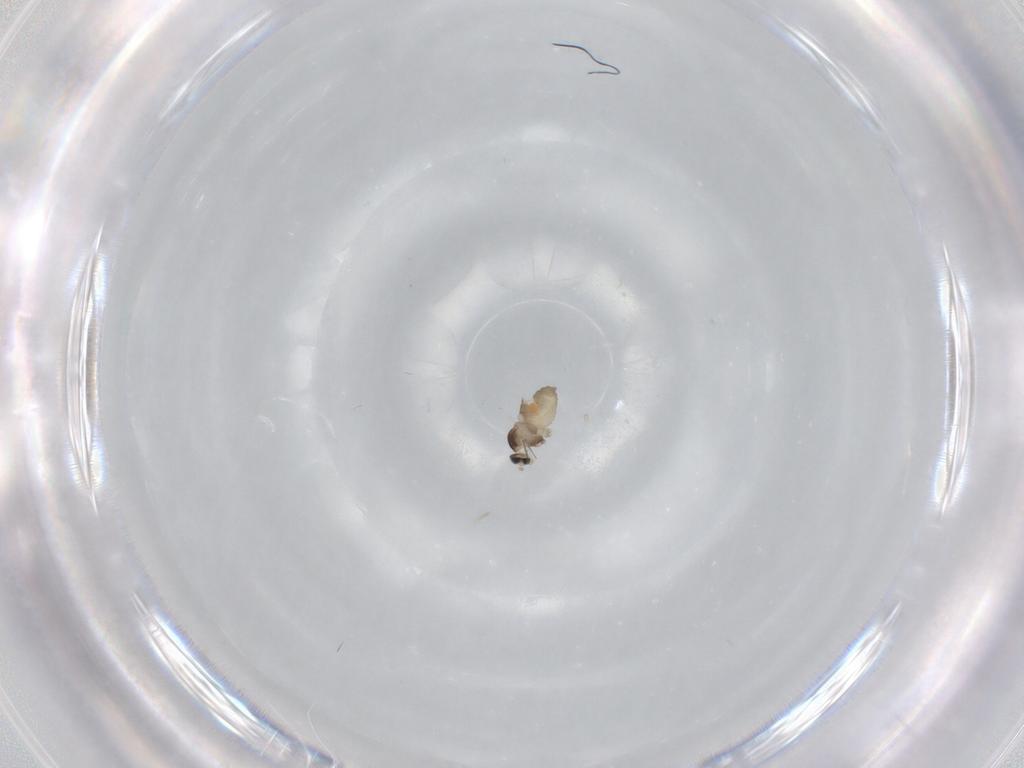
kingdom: Animalia
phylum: Arthropoda
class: Insecta
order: Diptera
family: Cecidomyiidae
